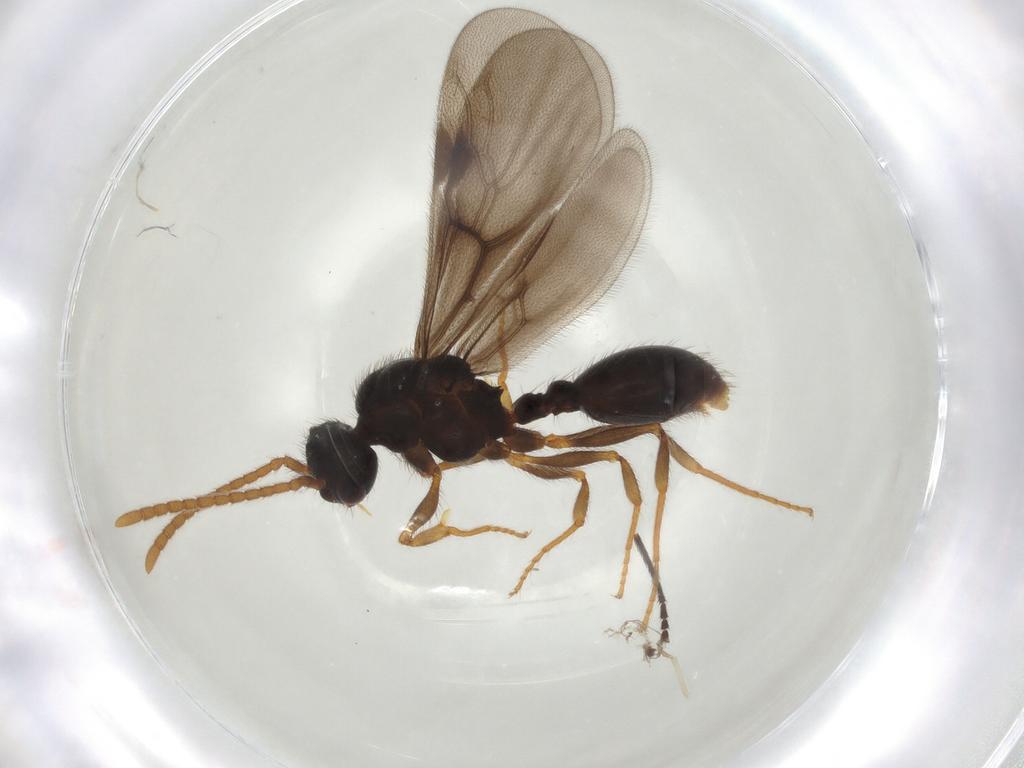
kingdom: Animalia
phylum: Arthropoda
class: Insecta
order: Hymenoptera
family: Formicidae
